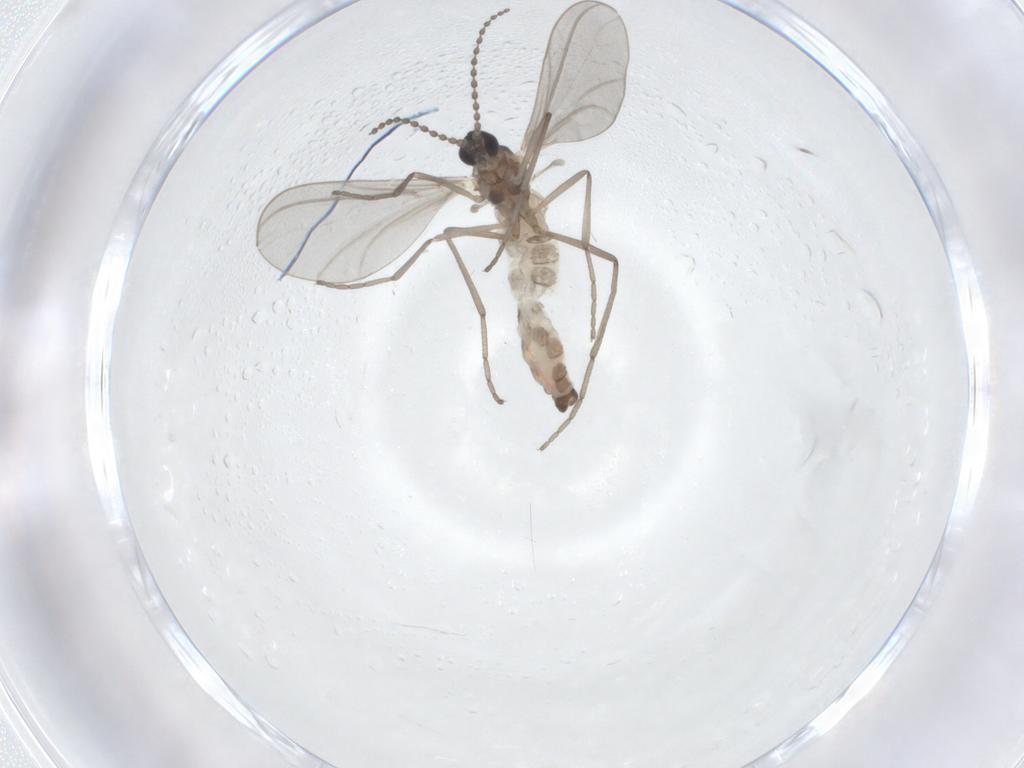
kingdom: Animalia
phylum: Arthropoda
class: Insecta
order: Diptera
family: Cecidomyiidae
